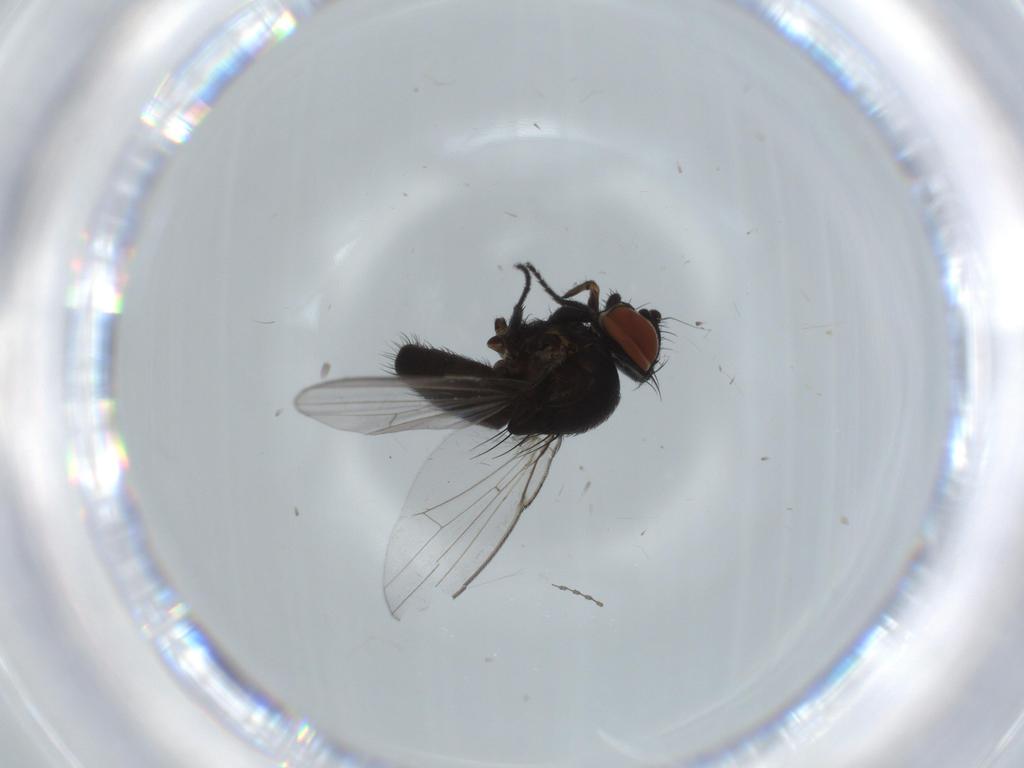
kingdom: Animalia
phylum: Arthropoda
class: Insecta
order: Diptera
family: Milichiidae
